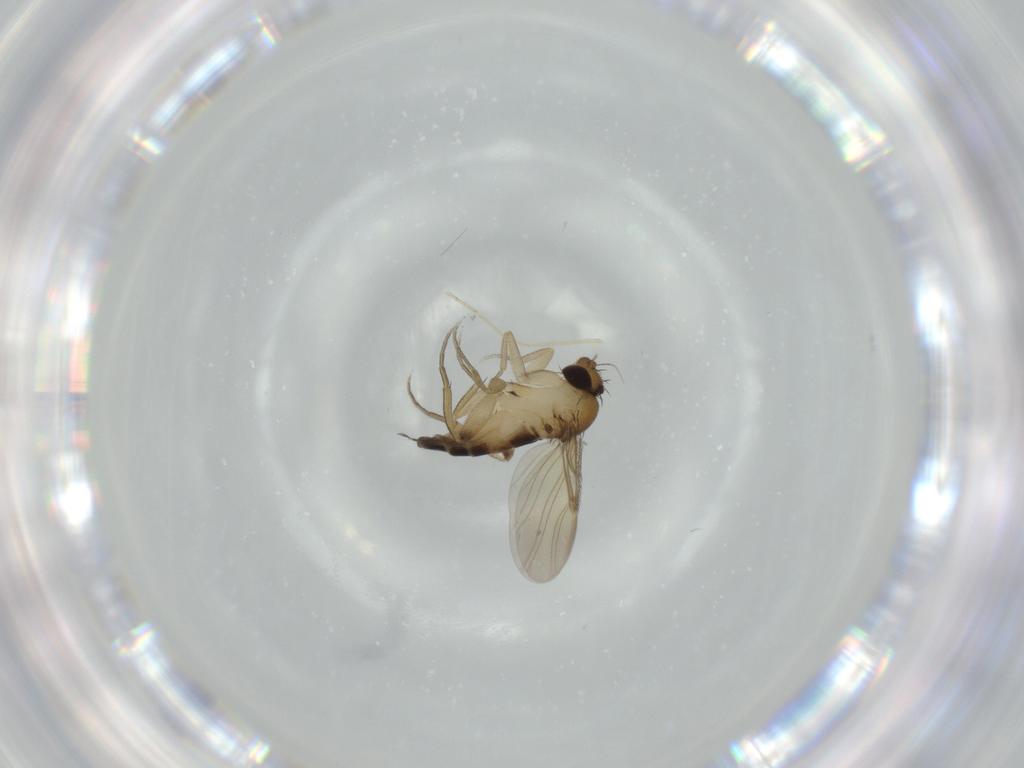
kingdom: Animalia
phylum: Arthropoda
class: Insecta
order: Diptera
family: Phoridae
